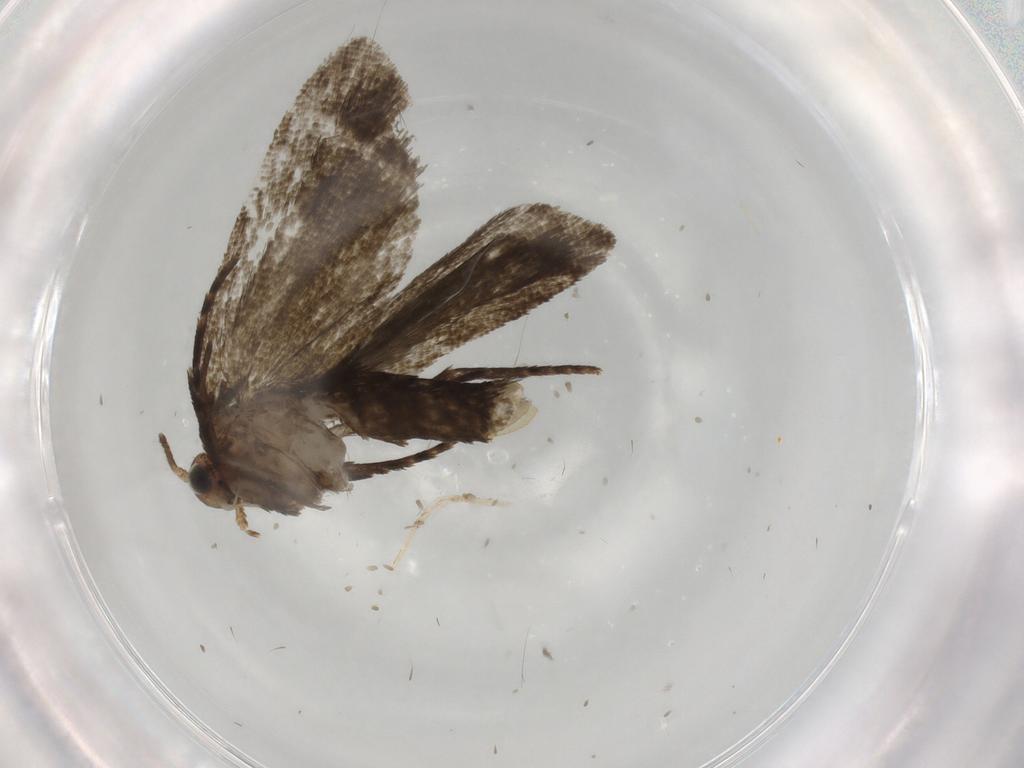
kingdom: Animalia
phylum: Arthropoda
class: Insecta
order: Lepidoptera
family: Tortricidae
